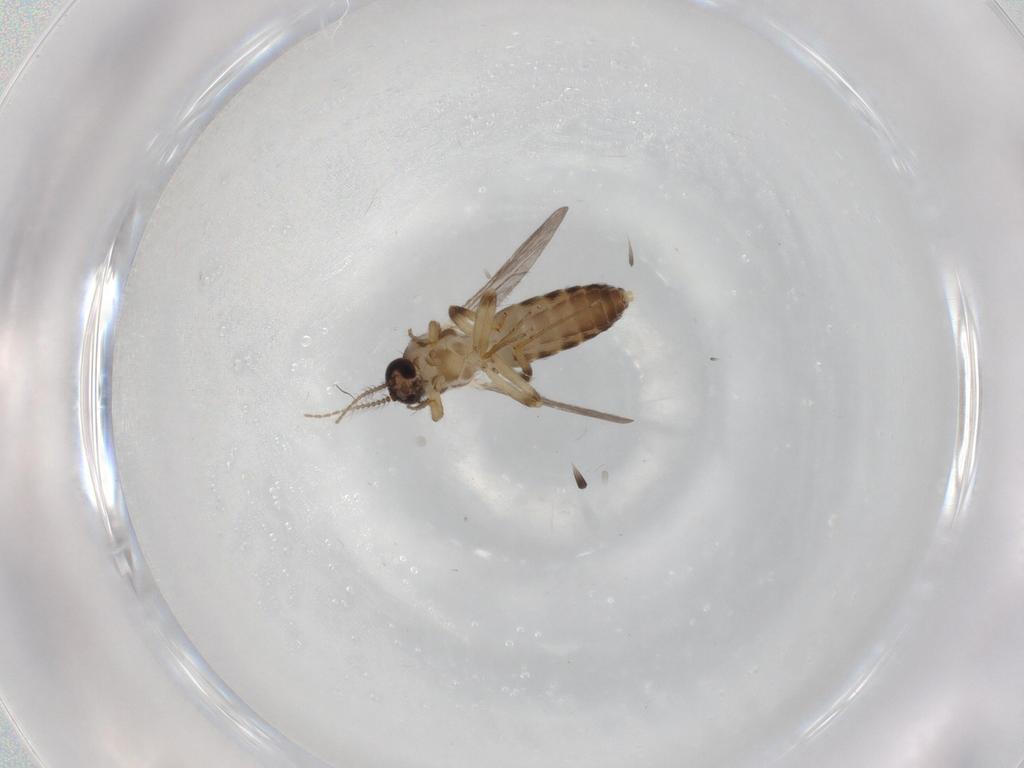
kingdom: Animalia
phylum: Arthropoda
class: Insecta
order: Diptera
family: Ceratopogonidae
